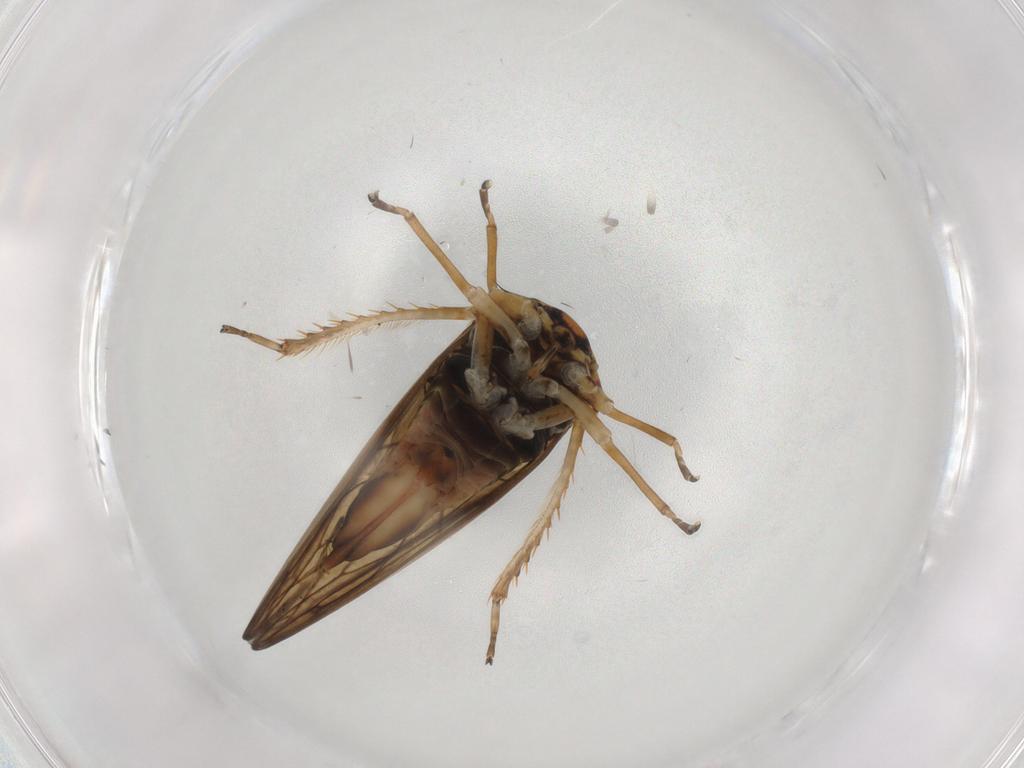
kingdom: Animalia
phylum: Arthropoda
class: Insecta
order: Hemiptera
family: Cicadellidae
